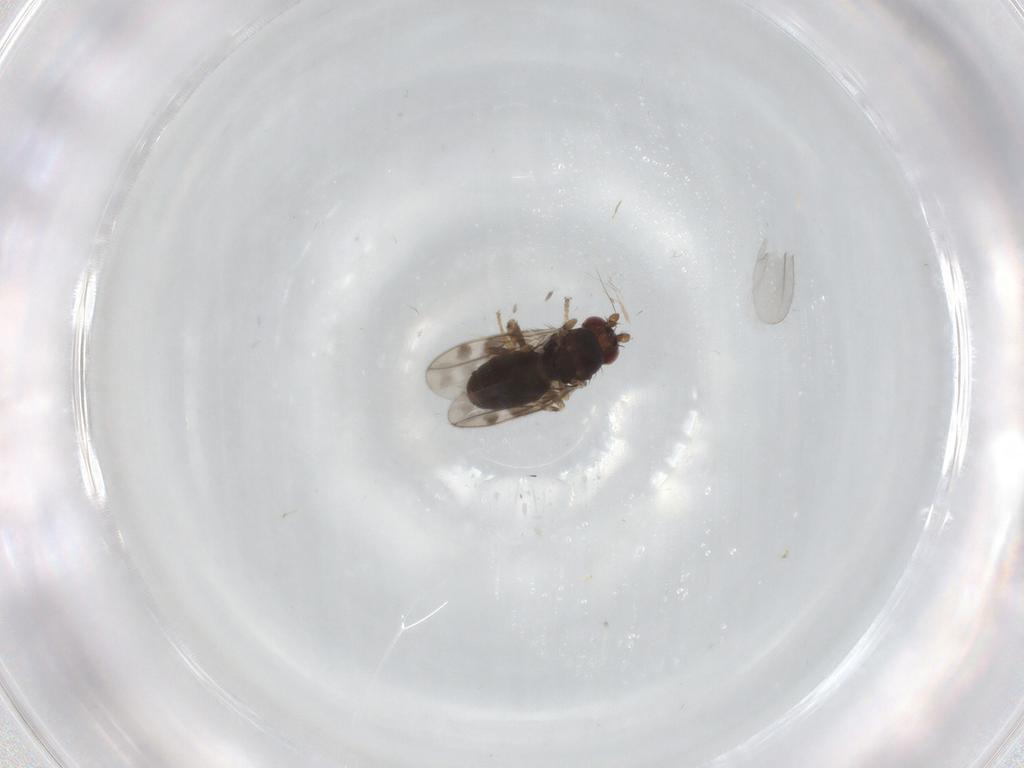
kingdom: Animalia
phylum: Arthropoda
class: Insecta
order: Diptera
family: Sphaeroceridae
